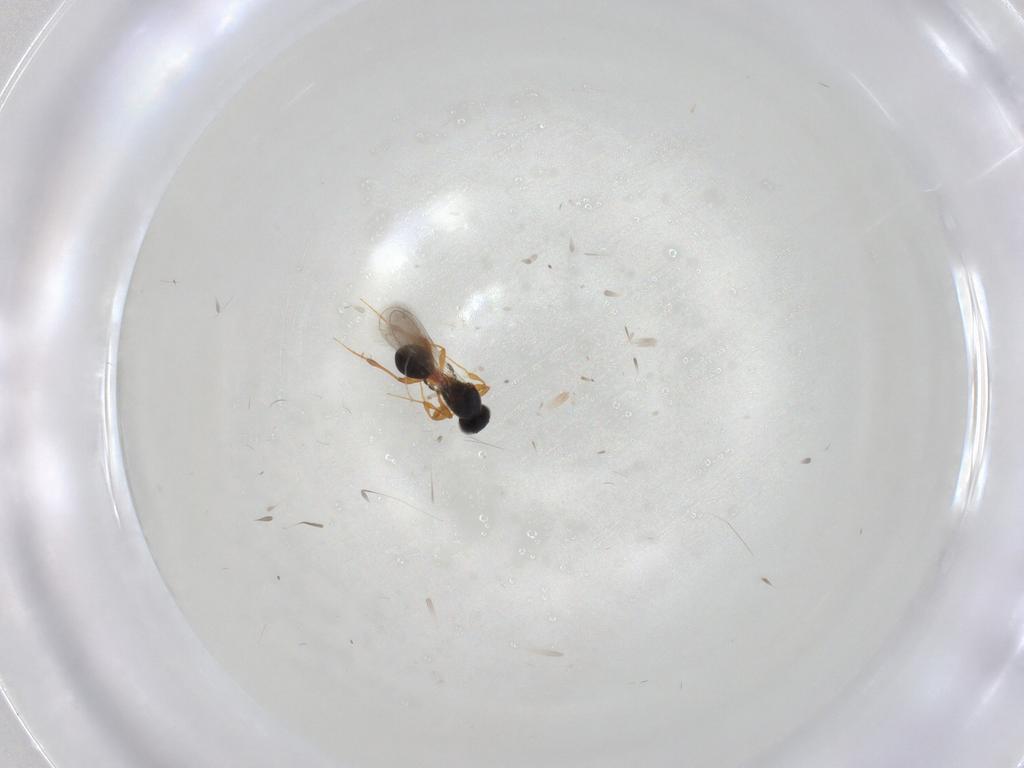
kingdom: Animalia
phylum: Arthropoda
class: Insecta
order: Hymenoptera
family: Platygastridae
